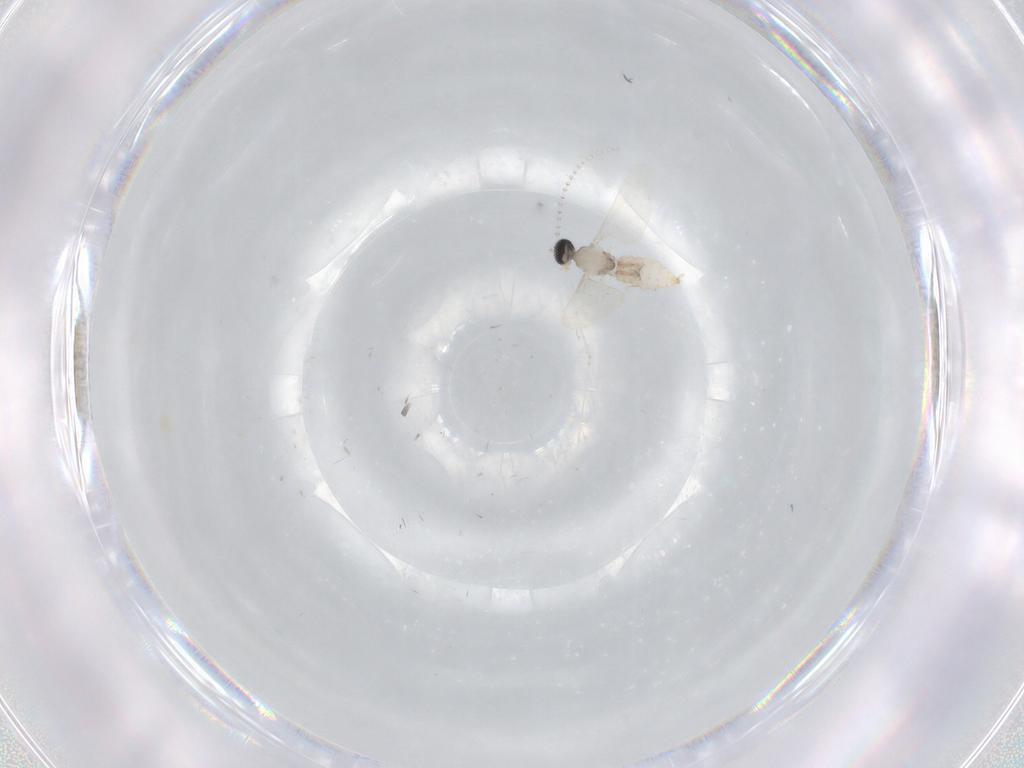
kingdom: Animalia
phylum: Arthropoda
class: Insecta
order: Diptera
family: Cecidomyiidae
